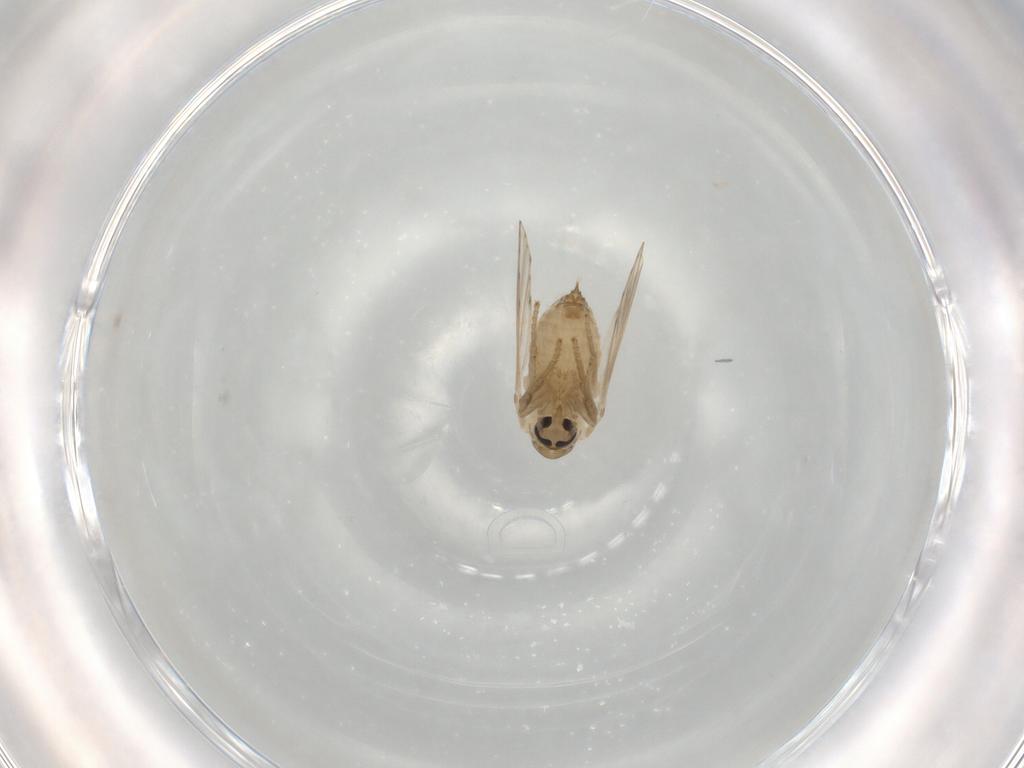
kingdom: Animalia
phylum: Arthropoda
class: Insecta
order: Diptera
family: Psychodidae
